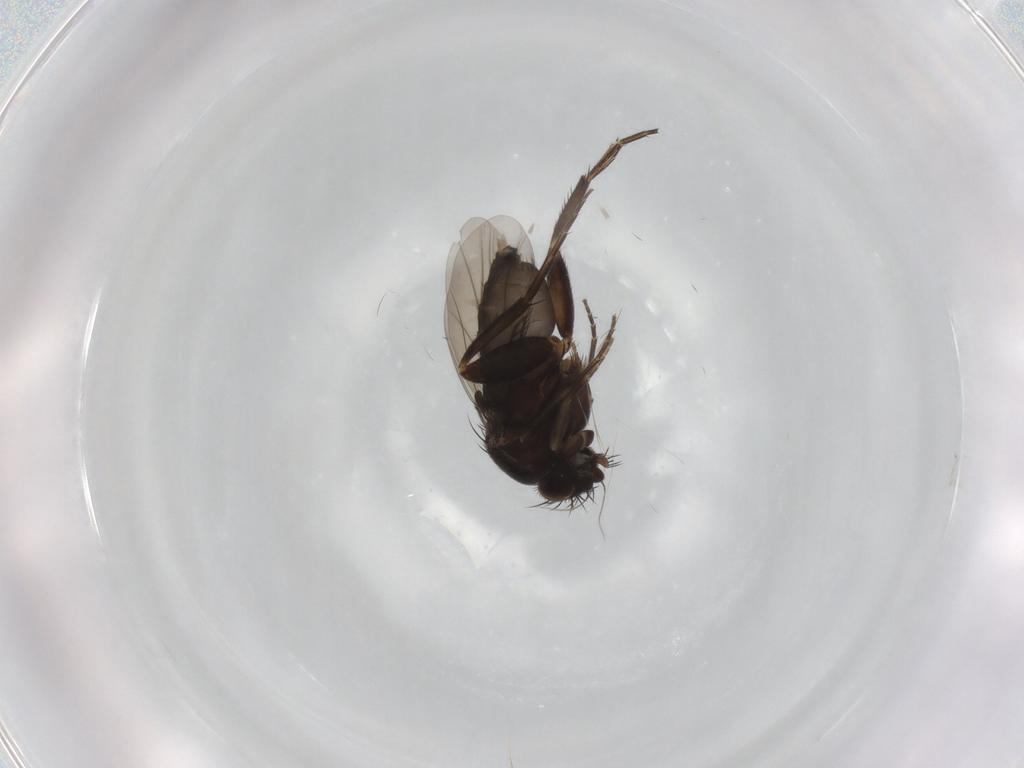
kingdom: Animalia
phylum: Arthropoda
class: Insecta
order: Diptera
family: Phoridae
